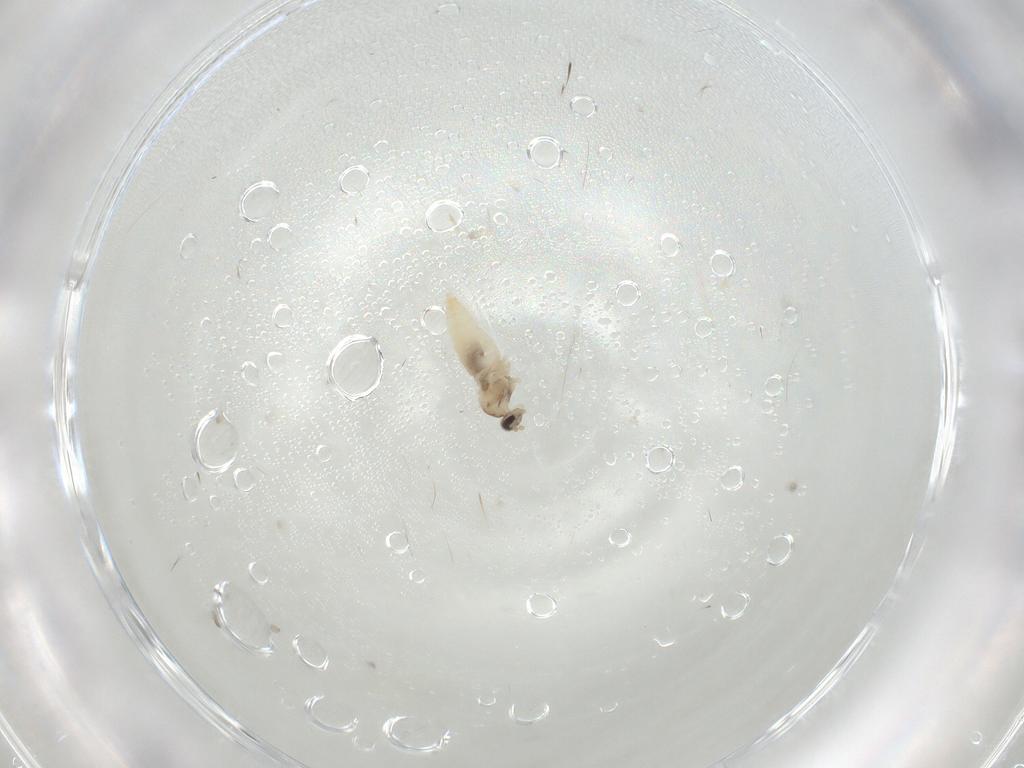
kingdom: Animalia
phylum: Arthropoda
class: Insecta
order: Diptera
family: Cecidomyiidae
